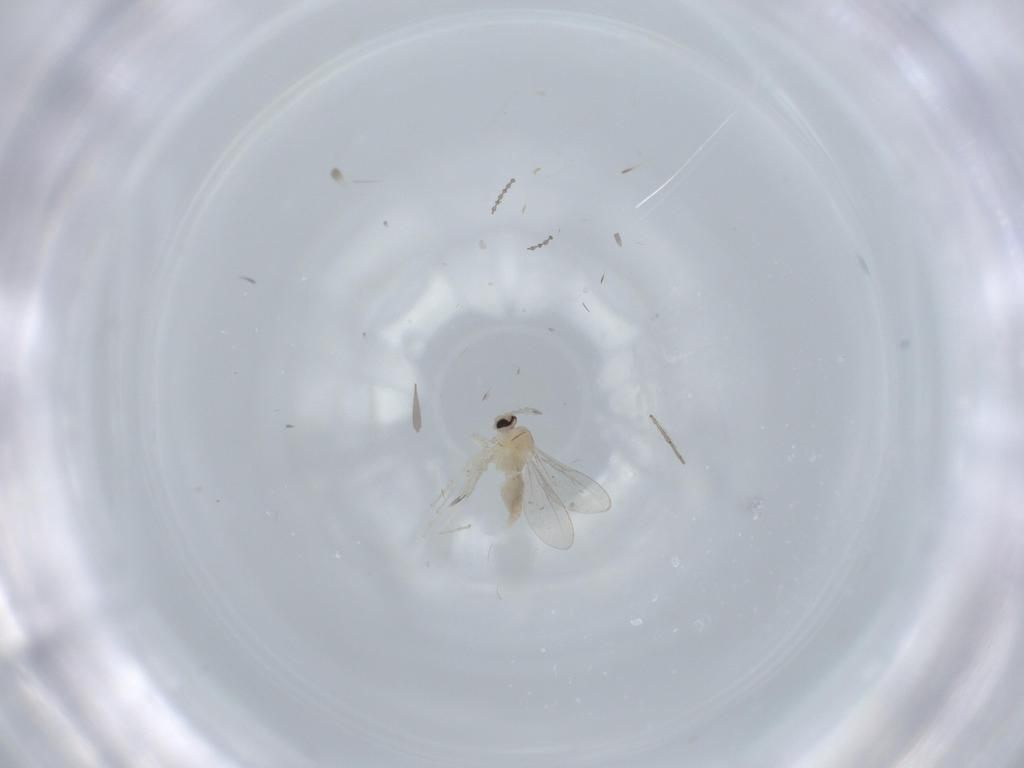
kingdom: Animalia
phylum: Arthropoda
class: Insecta
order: Diptera
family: Cecidomyiidae
